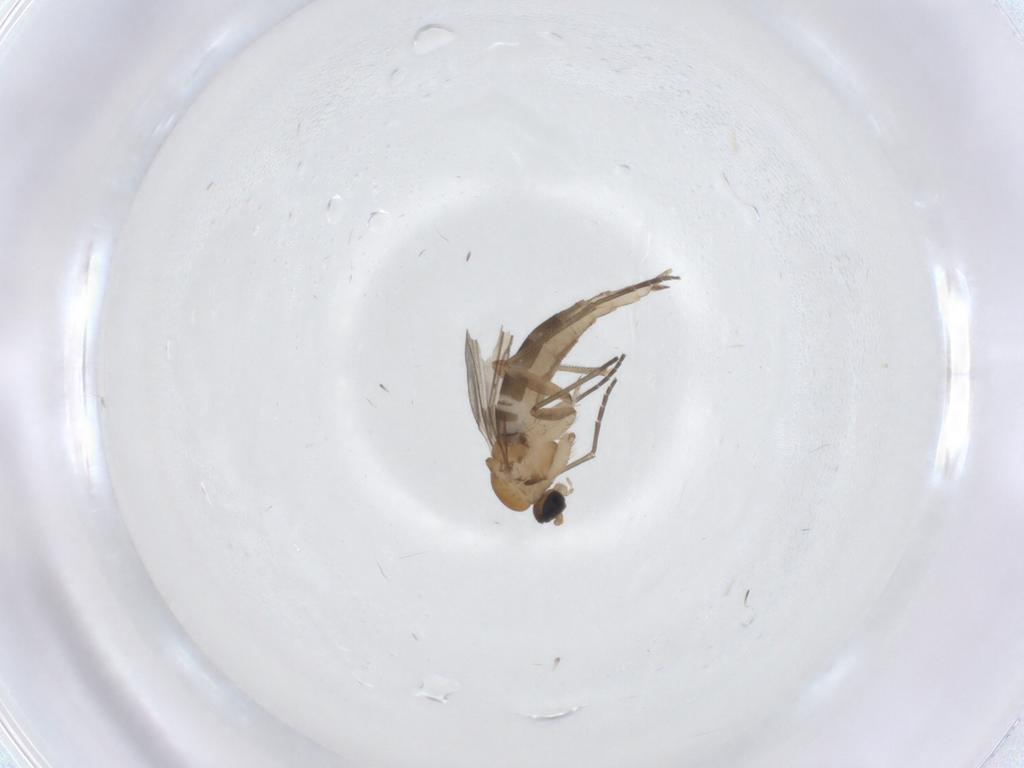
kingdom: Animalia
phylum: Arthropoda
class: Insecta
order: Diptera
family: Sciaridae
